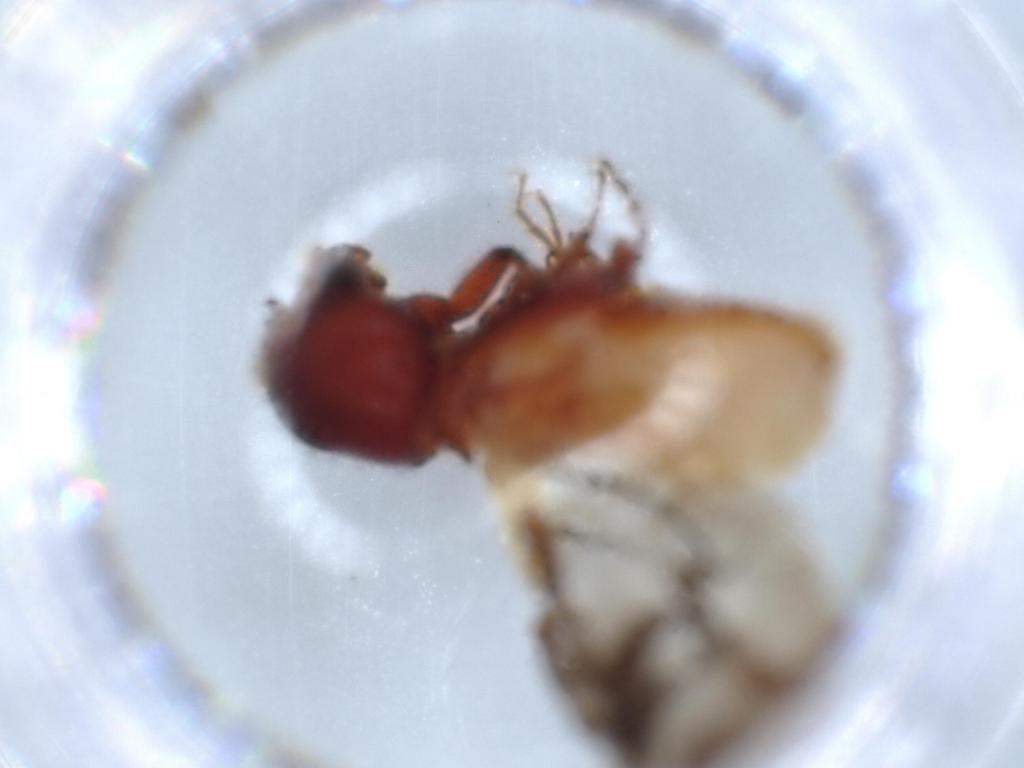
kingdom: Animalia
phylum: Arthropoda
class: Insecta
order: Coleoptera
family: Bostrichidae
